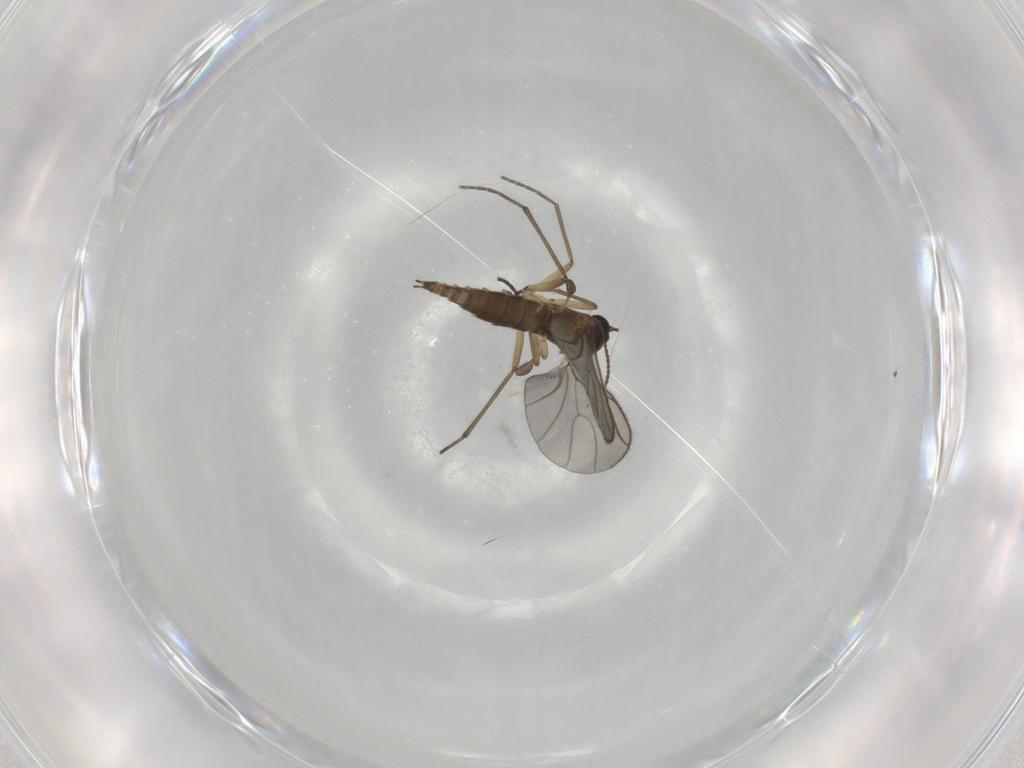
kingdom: Animalia
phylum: Arthropoda
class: Insecta
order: Diptera
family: Sciaridae
